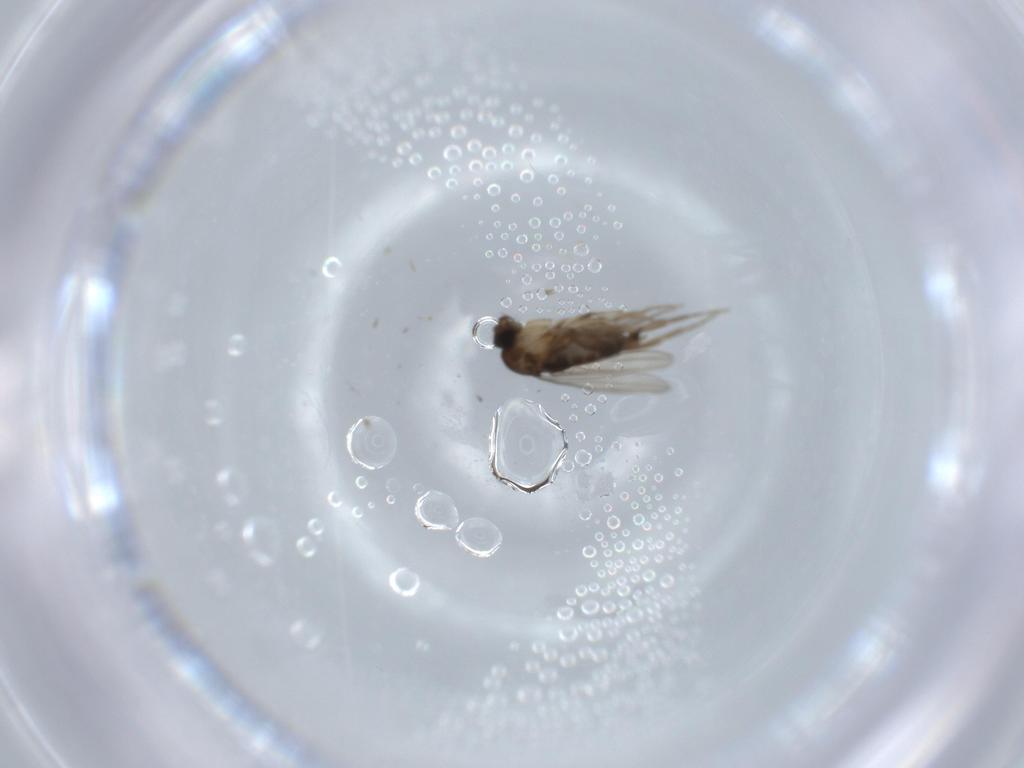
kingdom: Animalia
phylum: Arthropoda
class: Insecta
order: Diptera
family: Phoridae
